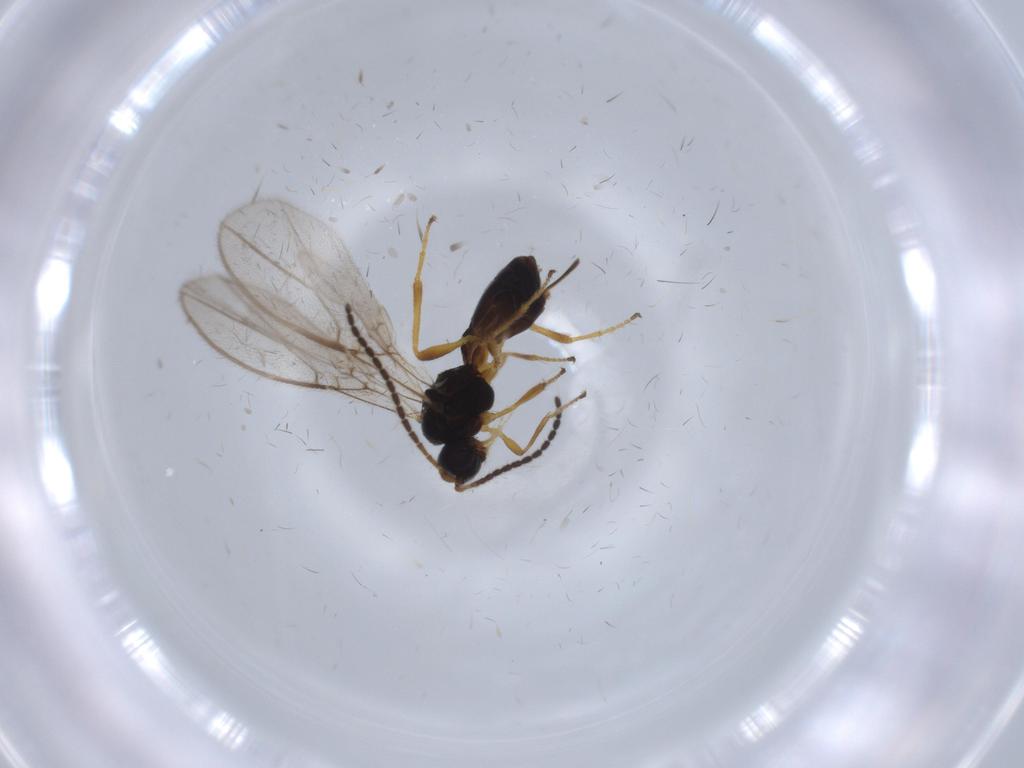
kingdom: Animalia
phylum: Arthropoda
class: Insecta
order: Hymenoptera
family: Braconidae
